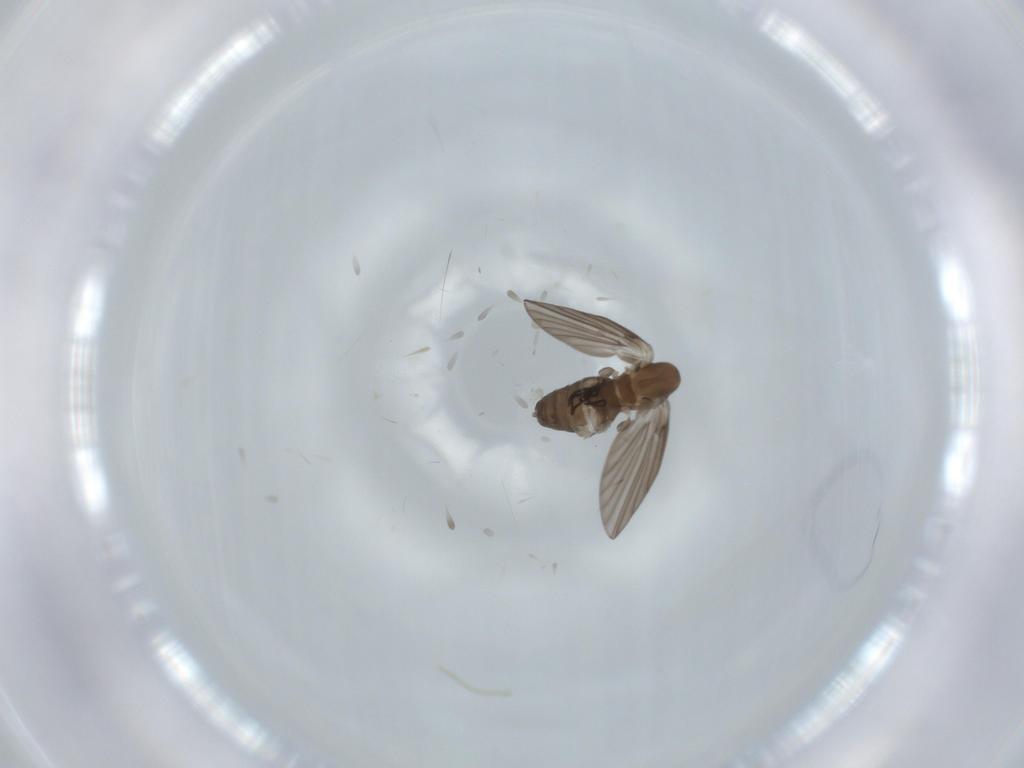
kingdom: Animalia
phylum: Arthropoda
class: Insecta
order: Diptera
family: Psychodidae
